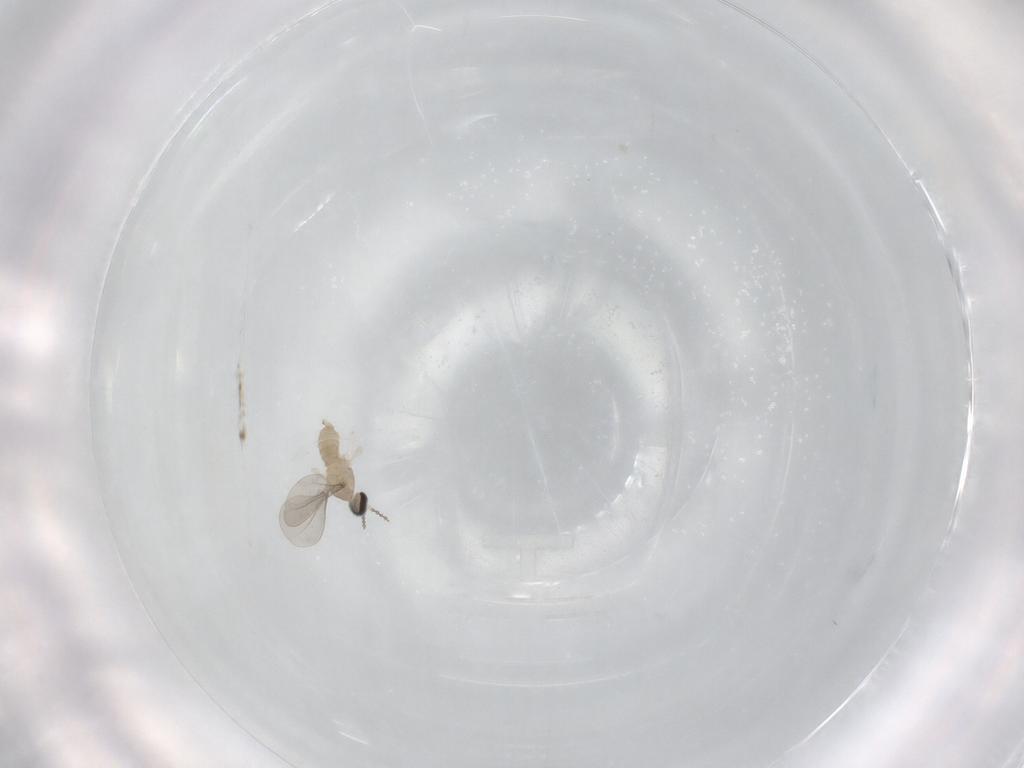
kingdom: Animalia
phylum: Arthropoda
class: Insecta
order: Diptera
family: Cecidomyiidae
